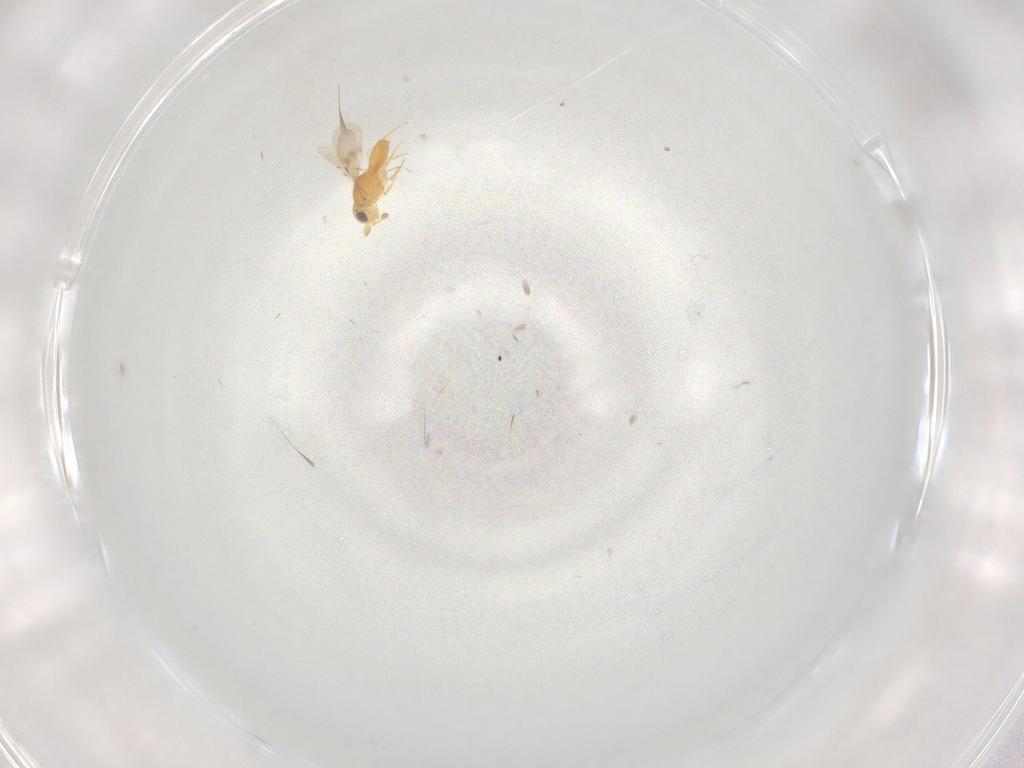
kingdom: Animalia
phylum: Arthropoda
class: Insecta
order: Hymenoptera
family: Scelionidae
